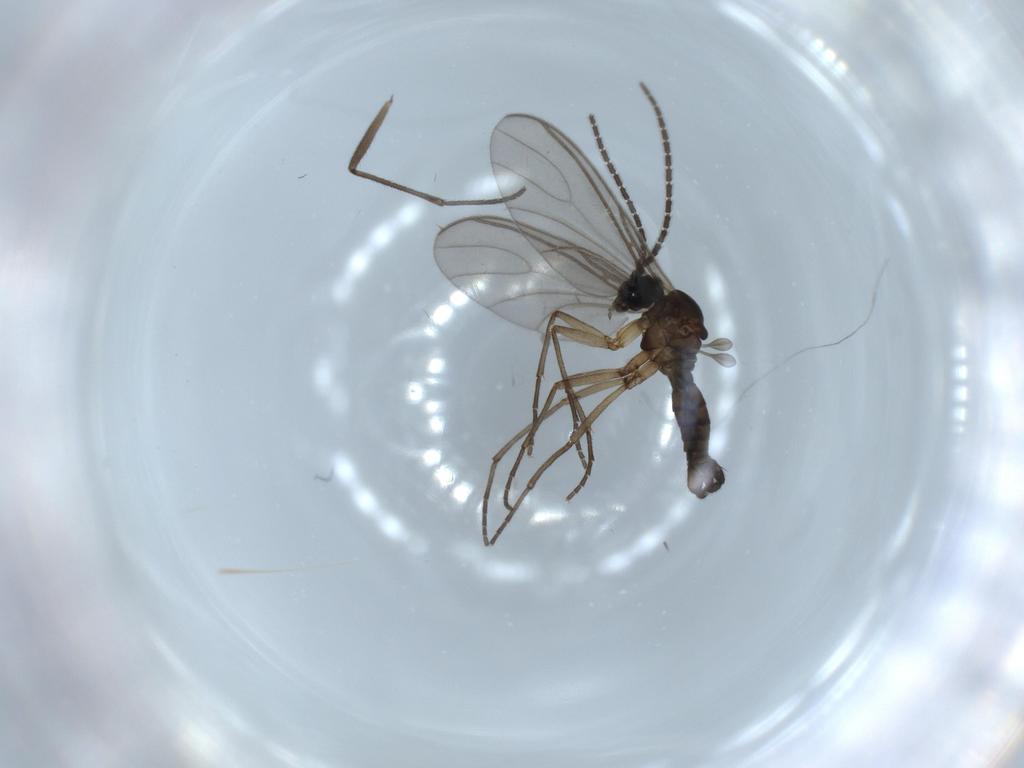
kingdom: Animalia
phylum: Arthropoda
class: Insecta
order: Diptera
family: Sciaridae
